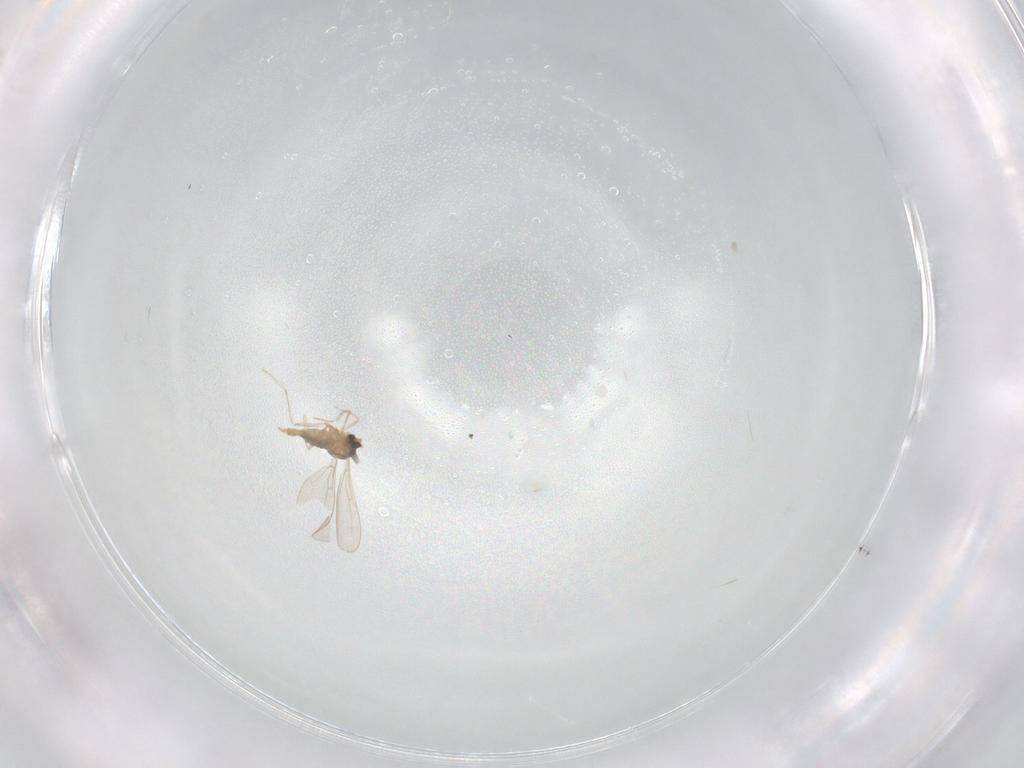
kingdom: Animalia
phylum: Arthropoda
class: Insecta
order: Diptera
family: Cecidomyiidae
